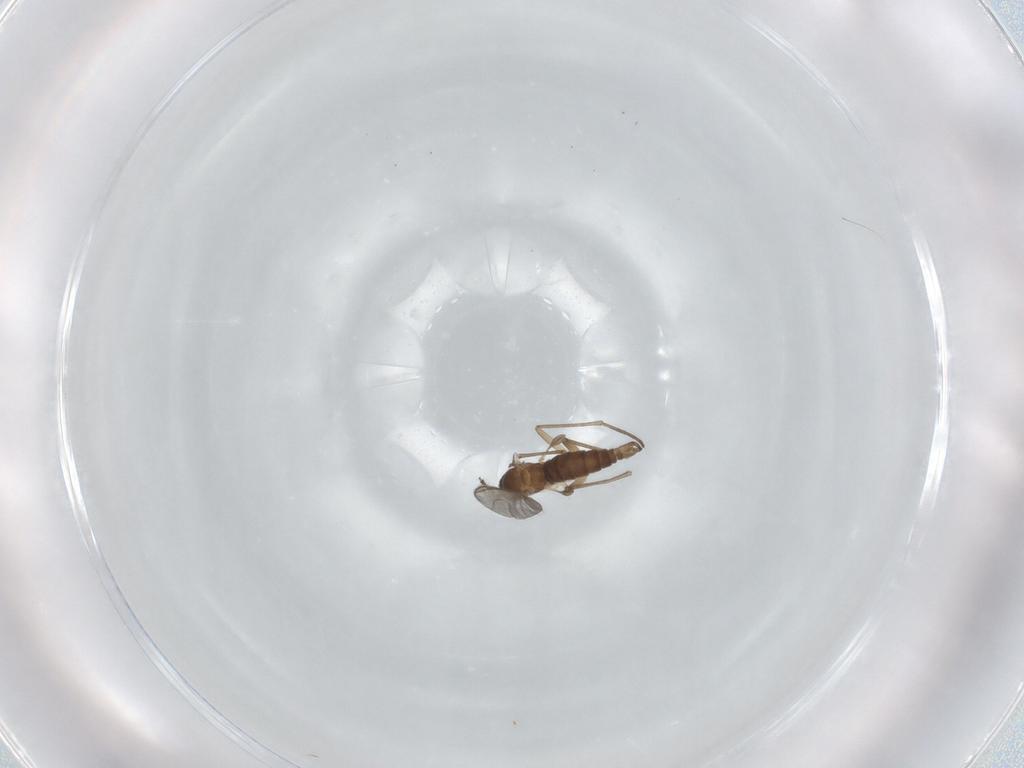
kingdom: Animalia
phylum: Arthropoda
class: Insecta
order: Diptera
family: Sciaridae
